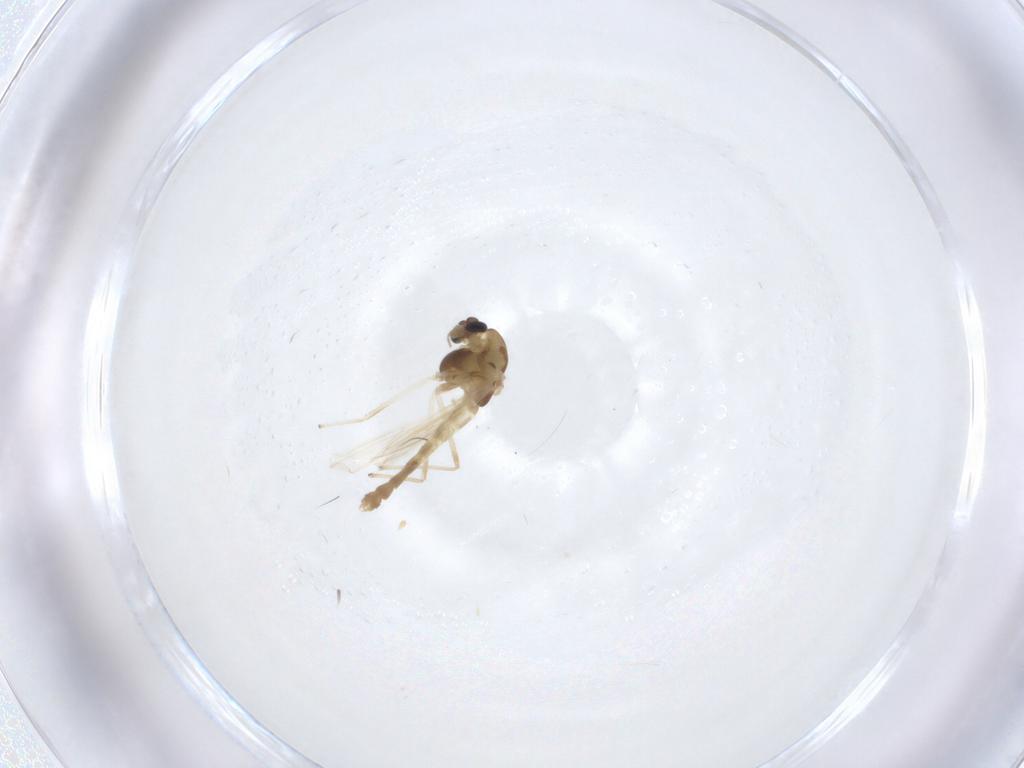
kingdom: Animalia
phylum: Arthropoda
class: Insecta
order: Diptera
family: Chironomidae
